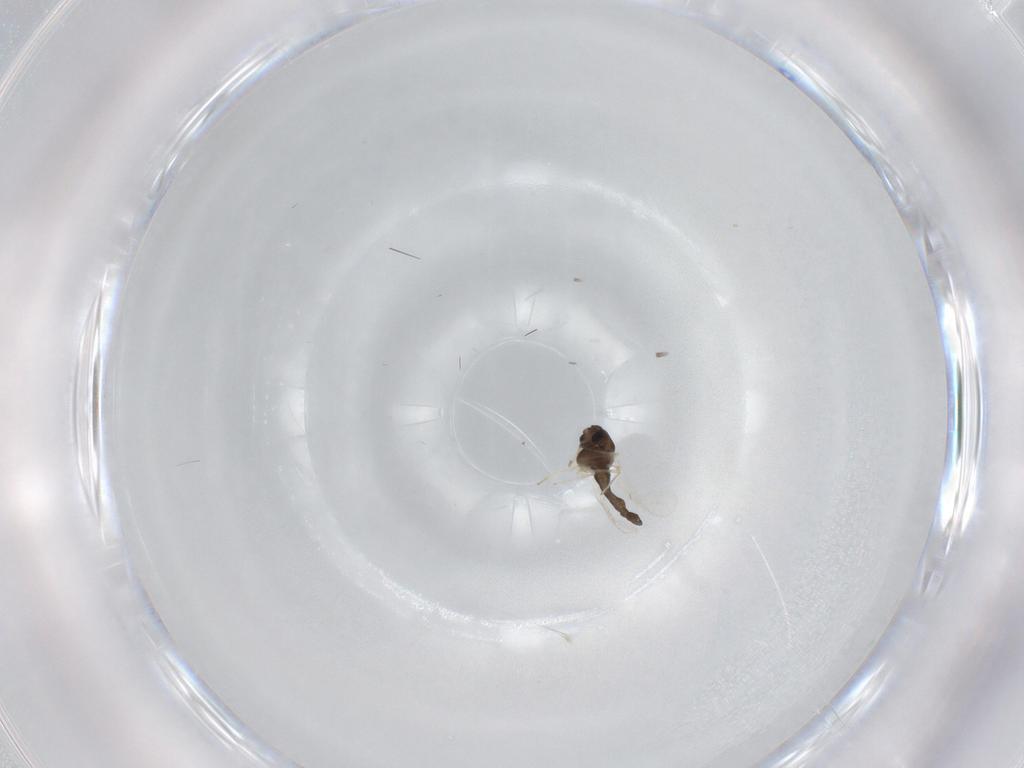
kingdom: Animalia
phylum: Arthropoda
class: Insecta
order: Diptera
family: Chironomidae
